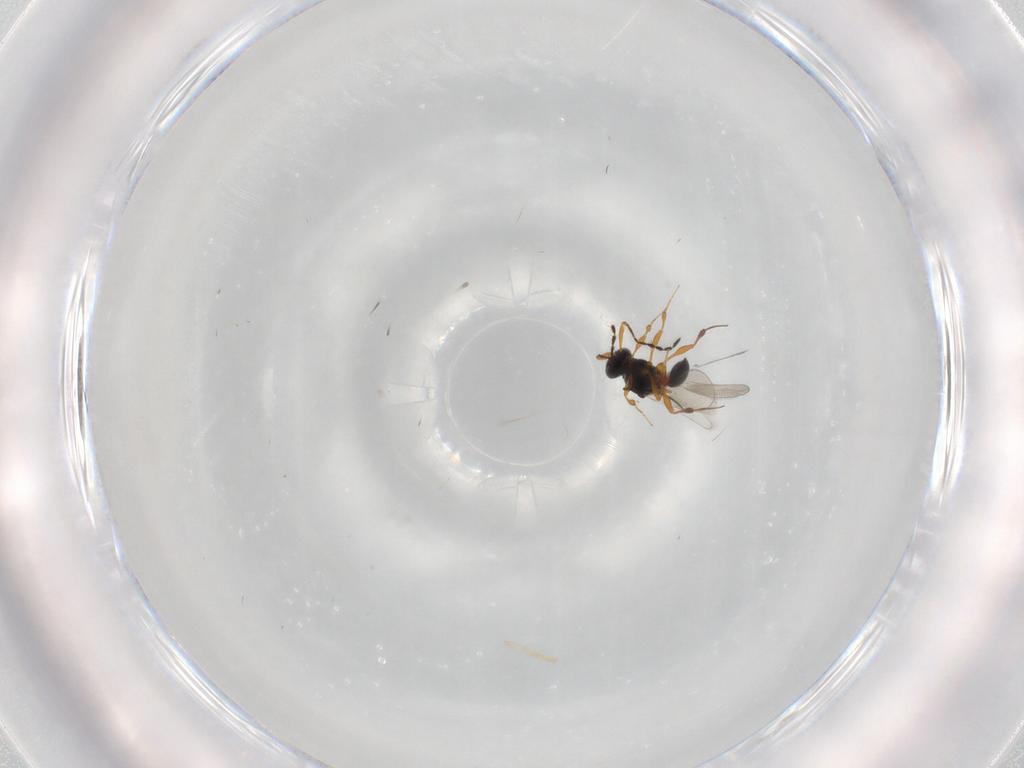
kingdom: Animalia
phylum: Arthropoda
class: Insecta
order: Hymenoptera
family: Platygastridae
